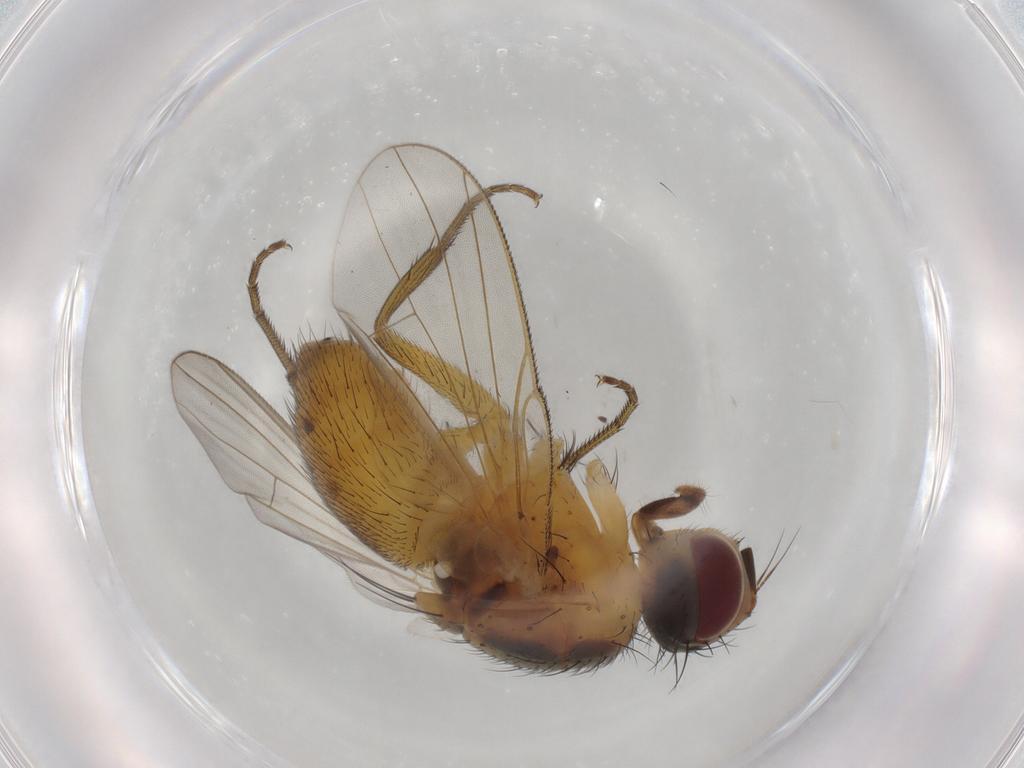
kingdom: Animalia
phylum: Arthropoda
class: Insecta
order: Diptera
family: Muscidae
